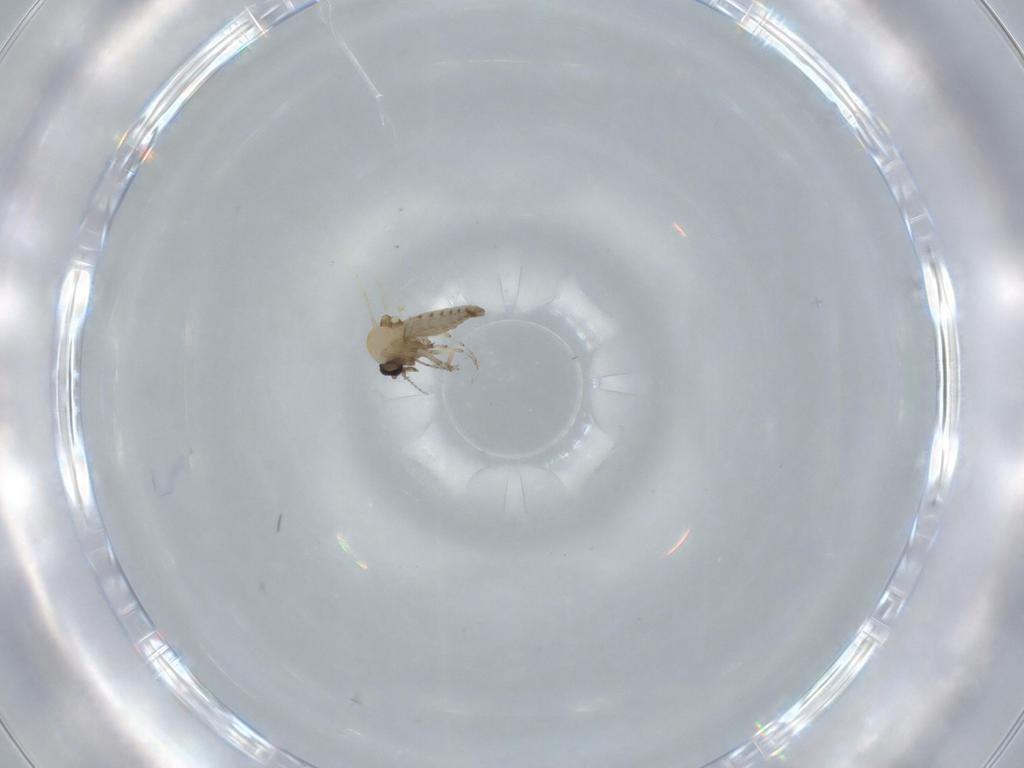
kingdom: Animalia
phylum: Arthropoda
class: Insecta
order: Diptera
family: Ceratopogonidae
